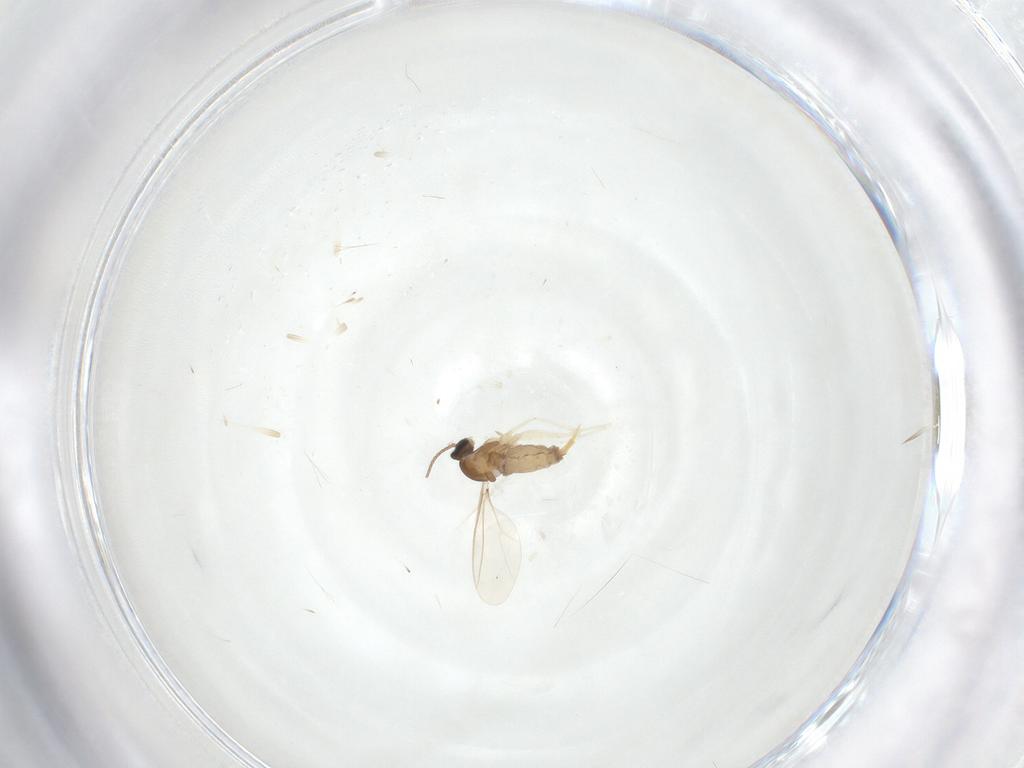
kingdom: Animalia
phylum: Arthropoda
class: Insecta
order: Diptera
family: Cecidomyiidae
